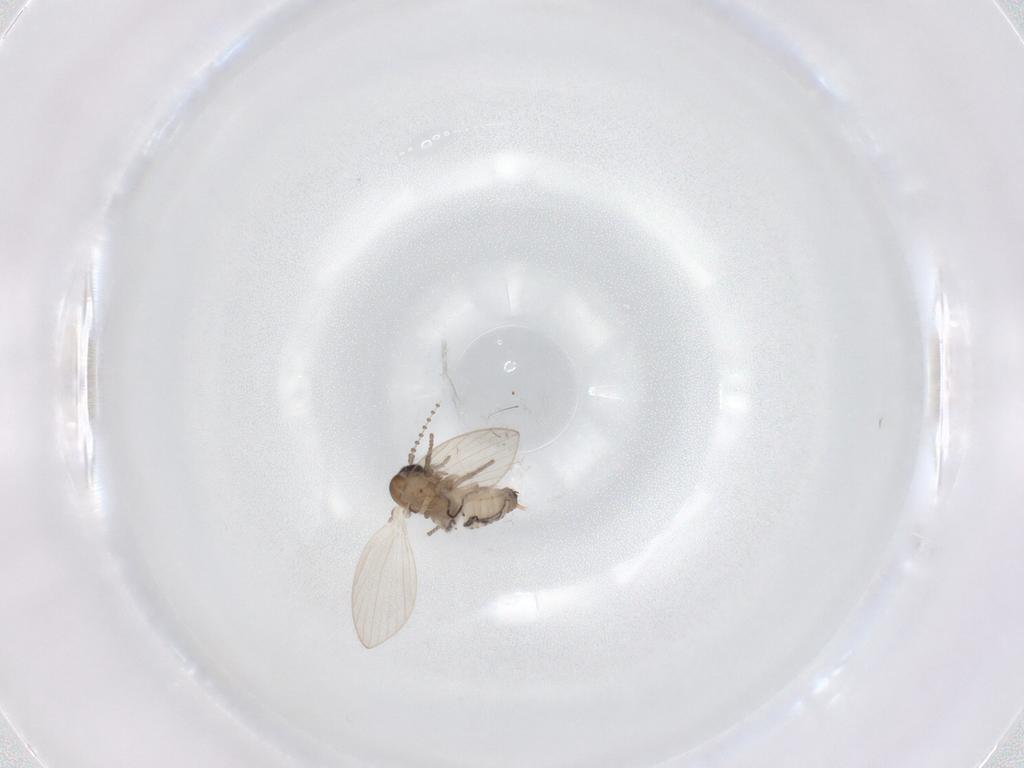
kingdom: Animalia
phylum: Arthropoda
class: Insecta
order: Diptera
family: Psychodidae
